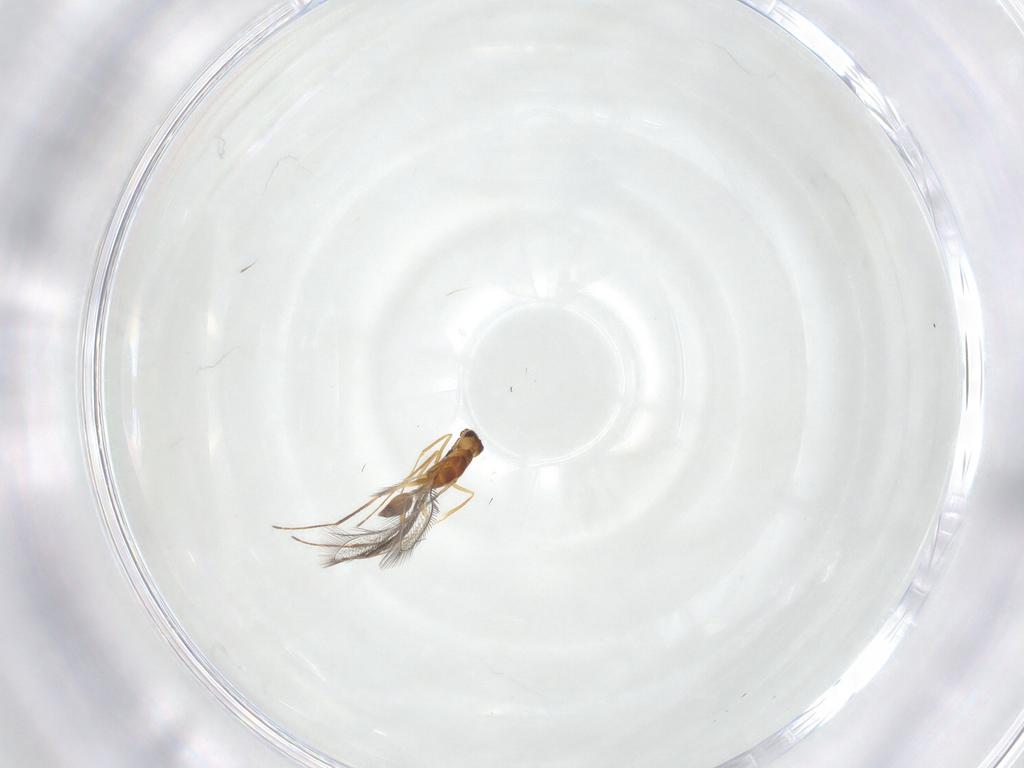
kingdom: Animalia
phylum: Arthropoda
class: Insecta
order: Hymenoptera
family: Mymaridae
